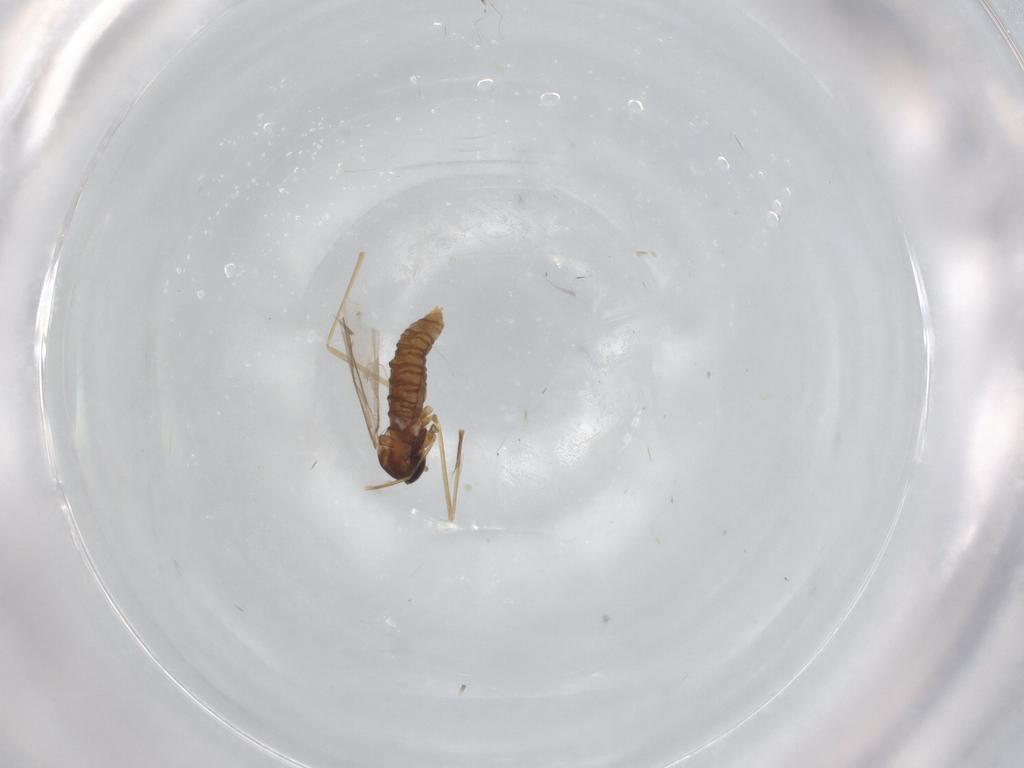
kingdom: Animalia
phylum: Arthropoda
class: Insecta
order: Diptera
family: Cecidomyiidae
